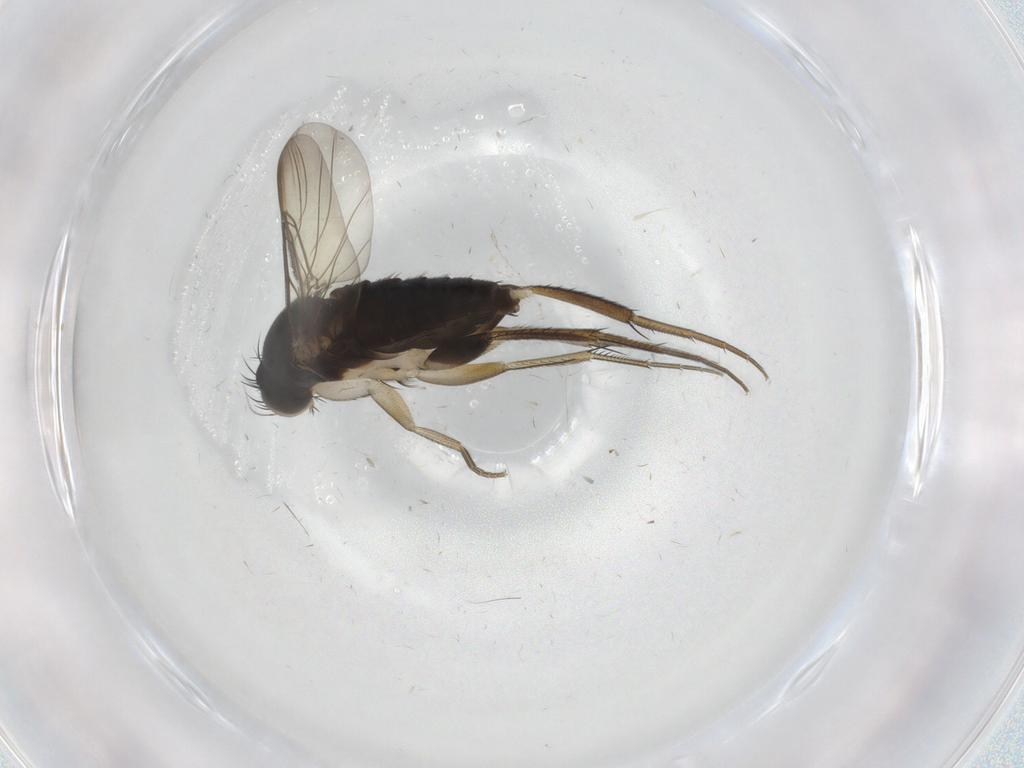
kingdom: Animalia
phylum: Arthropoda
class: Insecta
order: Diptera
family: Phoridae
